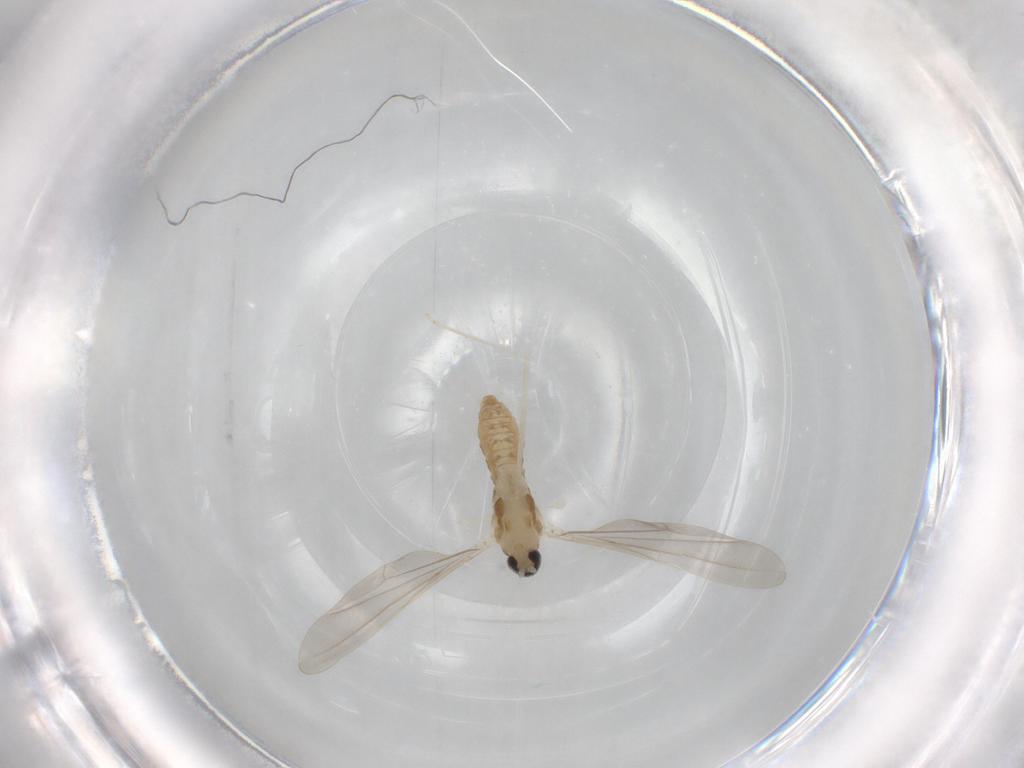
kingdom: Animalia
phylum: Arthropoda
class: Insecta
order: Diptera
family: Cecidomyiidae
